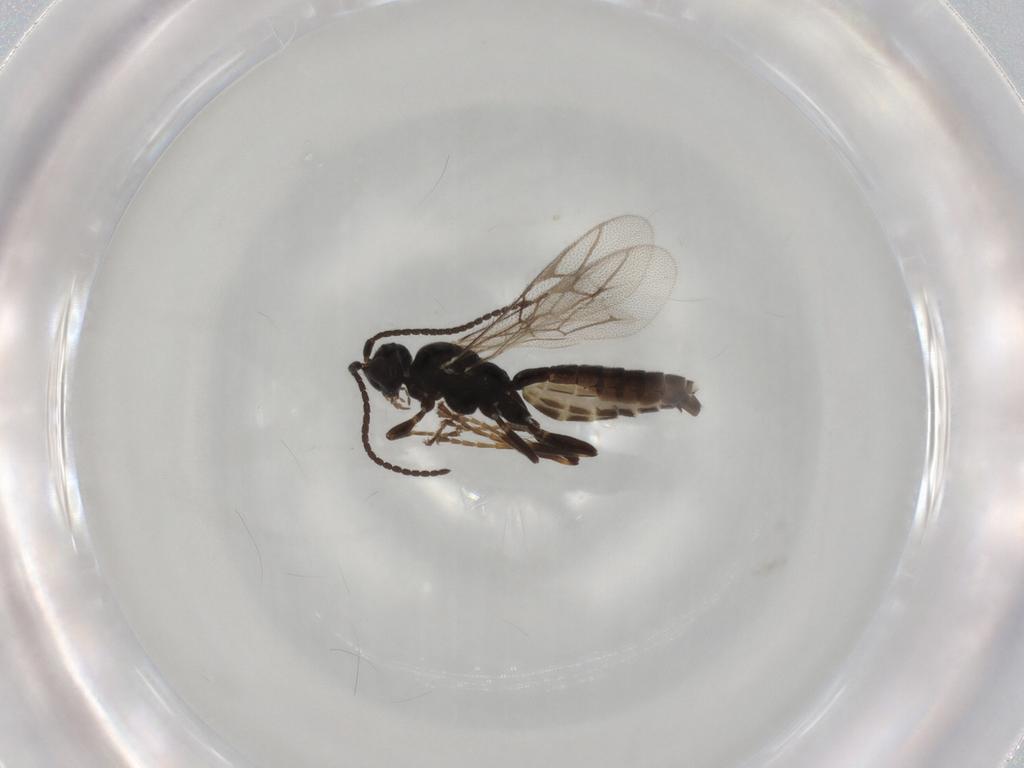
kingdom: Animalia
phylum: Arthropoda
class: Insecta
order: Hymenoptera
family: Ichneumonidae
